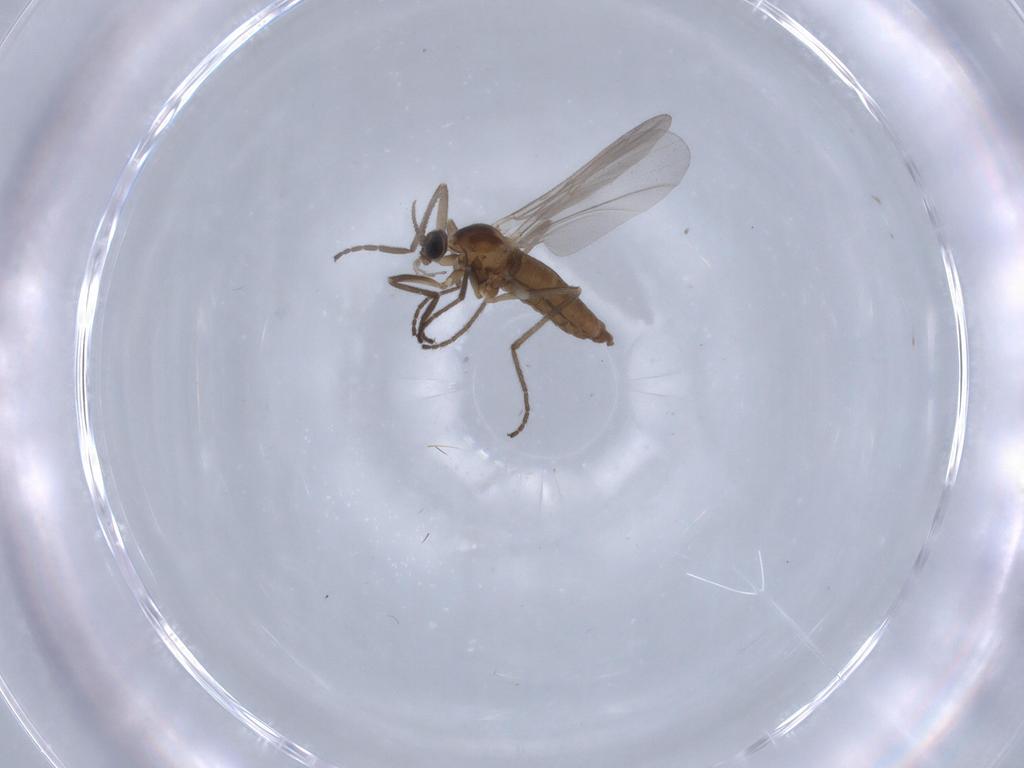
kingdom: Animalia
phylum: Arthropoda
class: Insecta
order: Diptera
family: Cecidomyiidae
